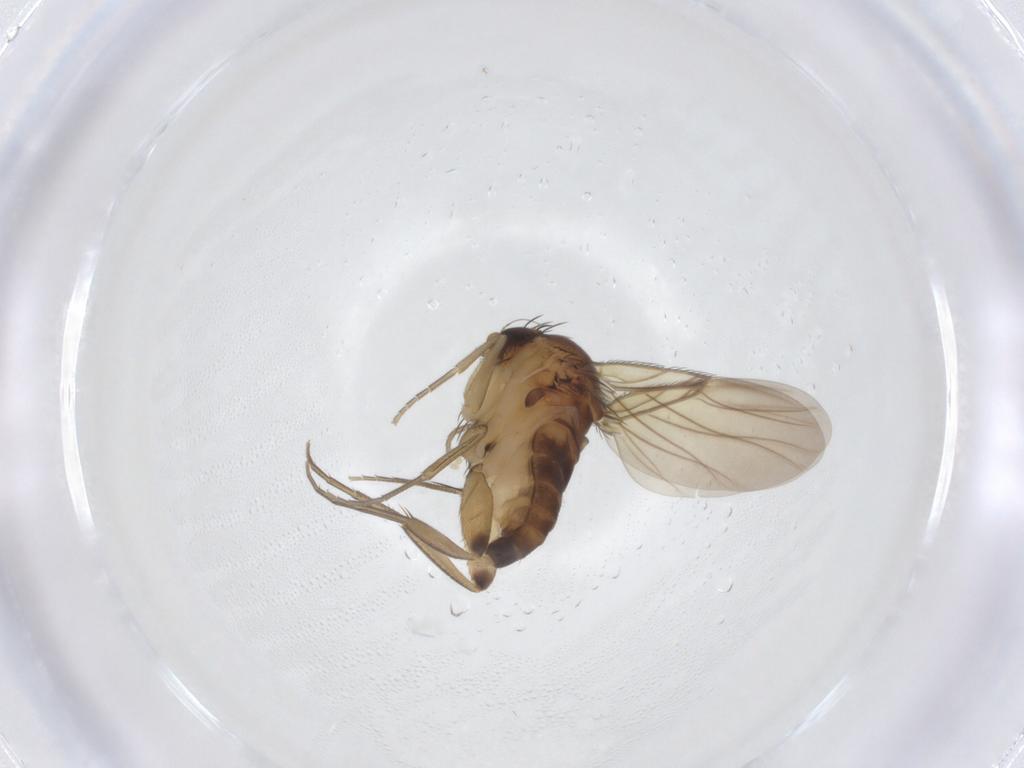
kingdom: Animalia
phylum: Arthropoda
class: Insecta
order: Diptera
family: Phoridae
